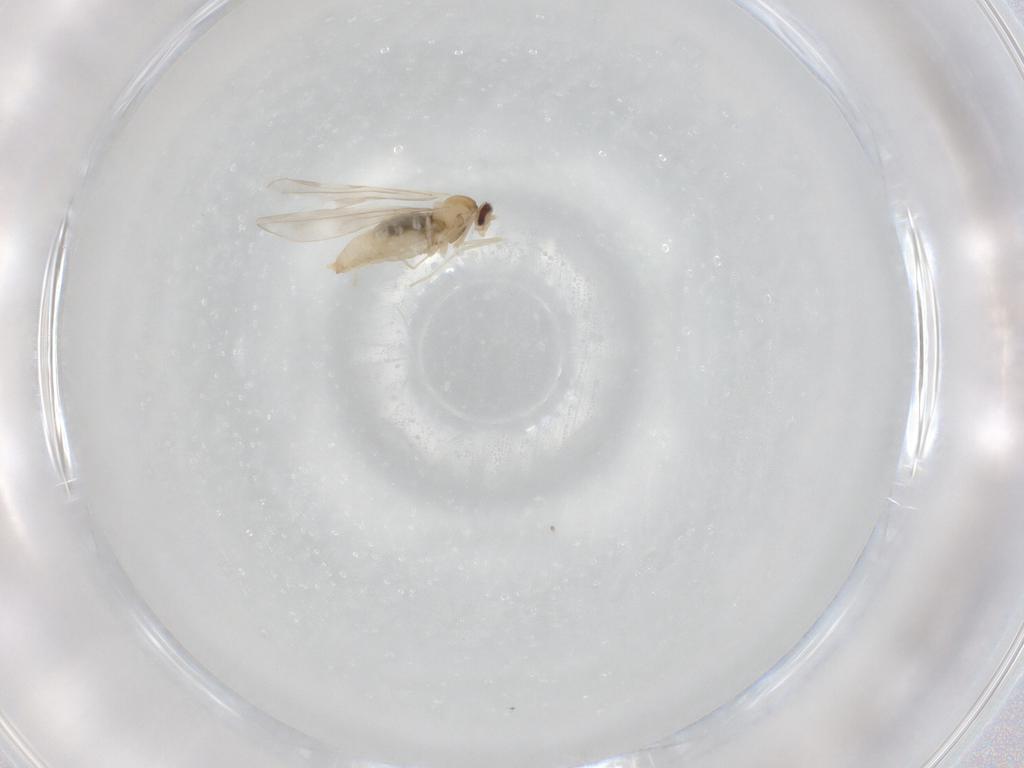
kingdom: Animalia
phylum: Arthropoda
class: Insecta
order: Diptera
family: Cecidomyiidae
